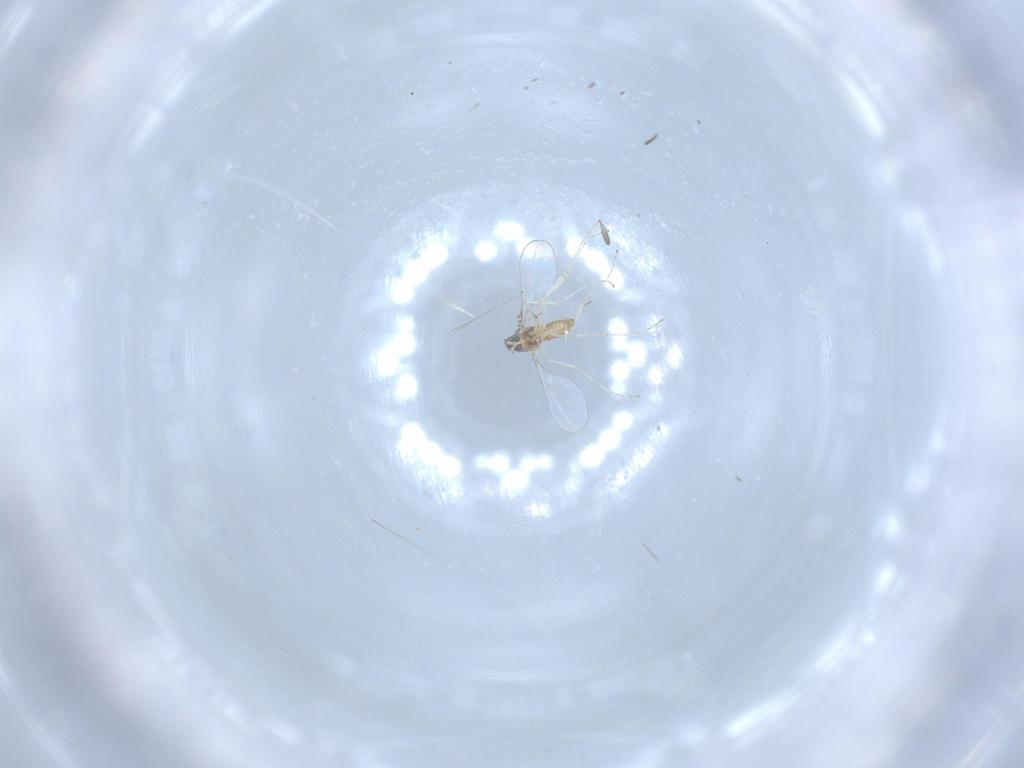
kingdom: Animalia
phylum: Arthropoda
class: Insecta
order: Diptera
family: Cecidomyiidae
